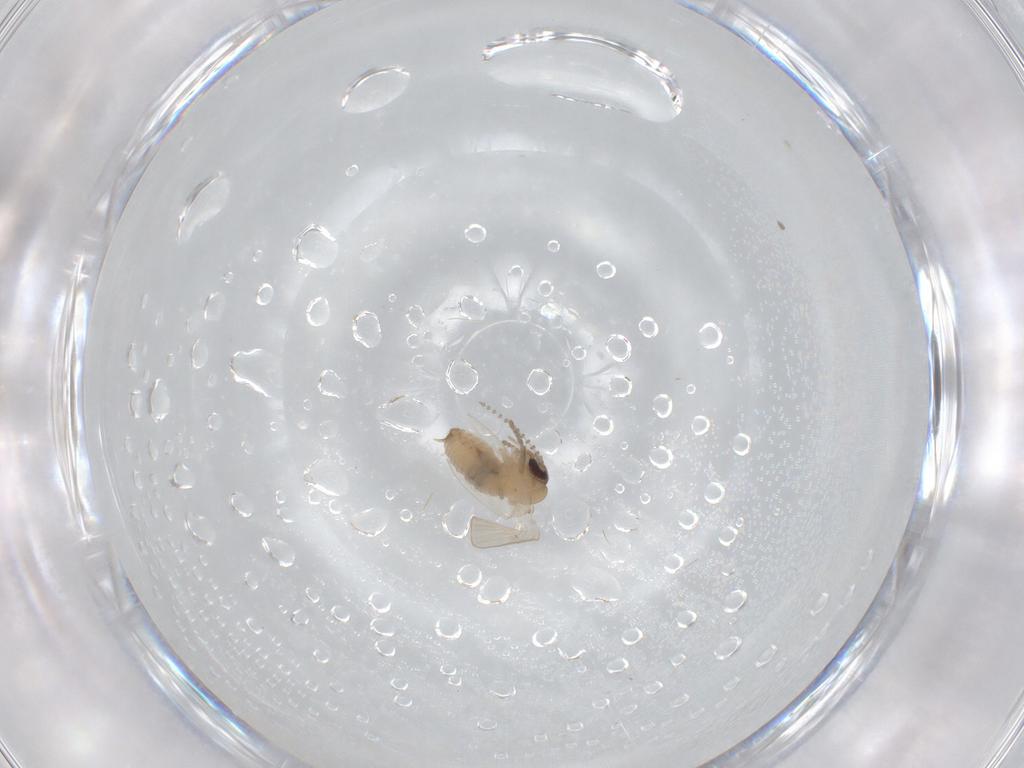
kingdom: Animalia
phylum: Arthropoda
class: Insecta
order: Diptera
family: Psychodidae
